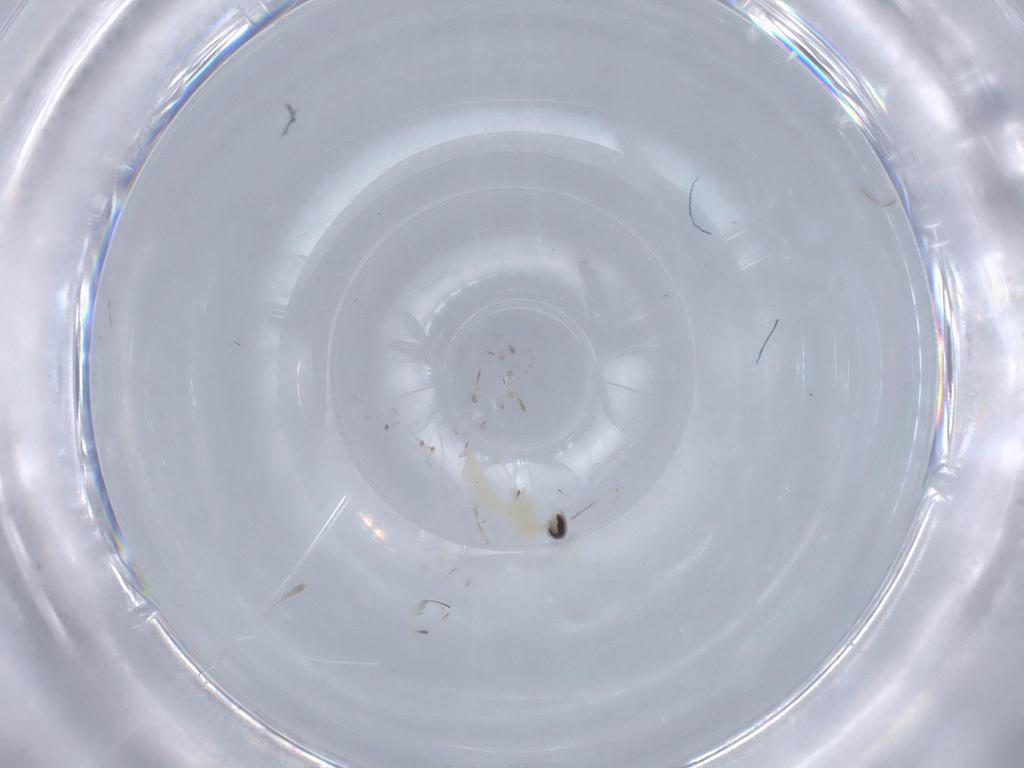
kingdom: Animalia
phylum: Arthropoda
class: Insecta
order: Diptera
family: Cecidomyiidae
